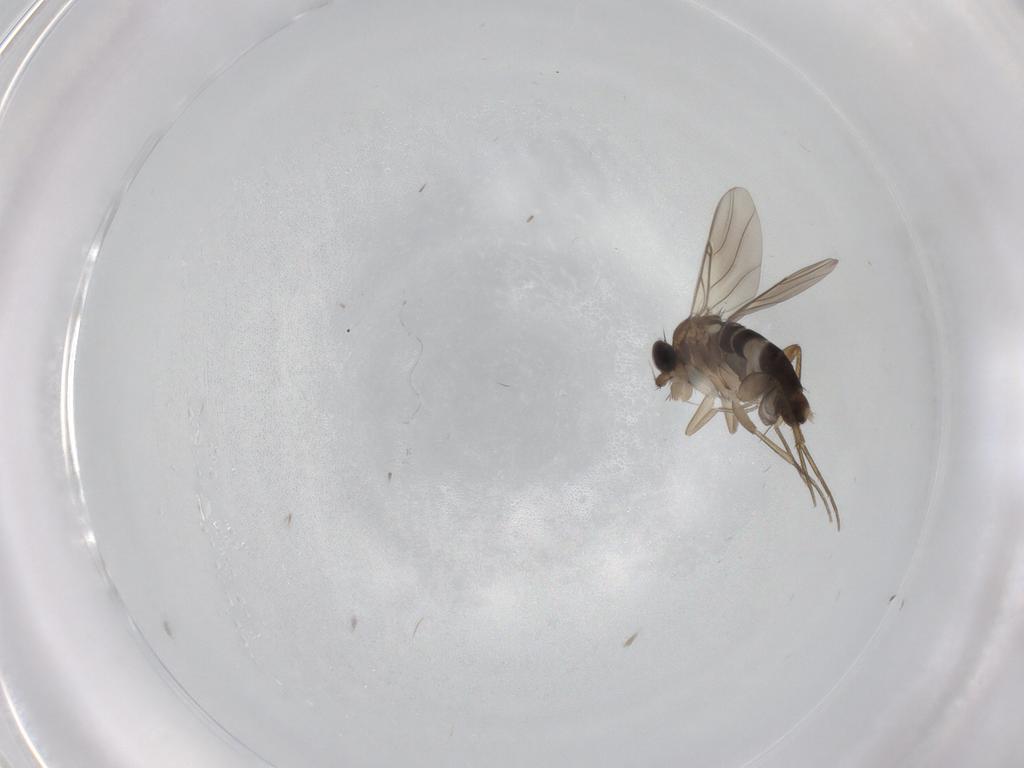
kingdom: Animalia
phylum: Arthropoda
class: Insecta
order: Diptera
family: Phoridae
